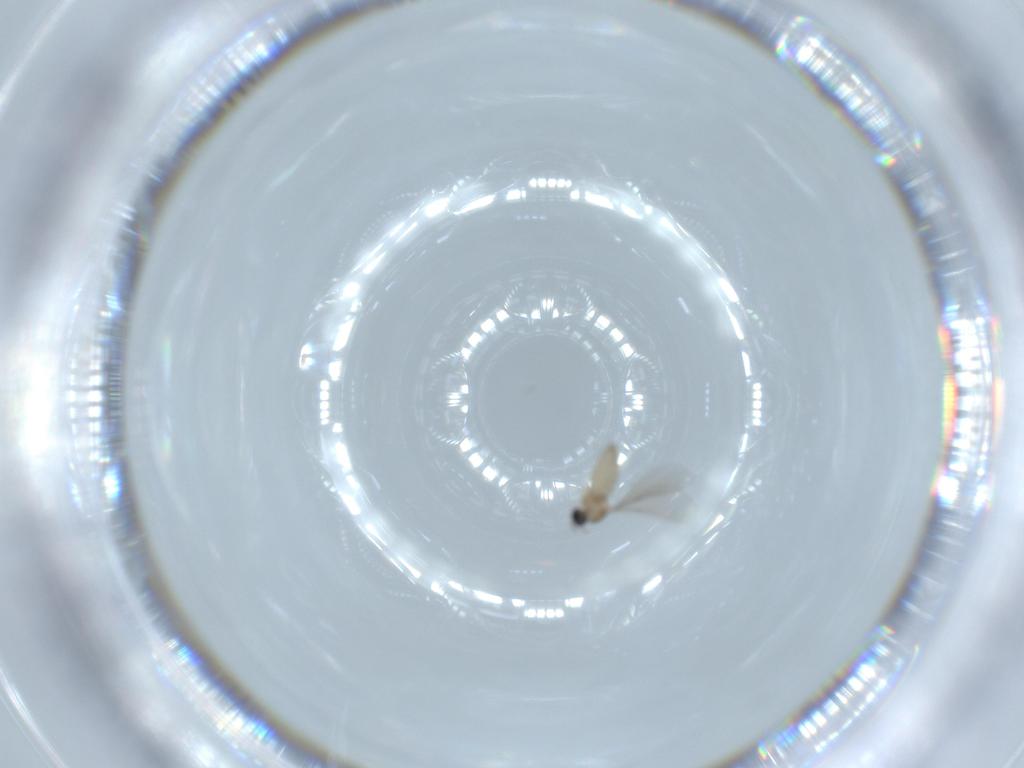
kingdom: Animalia
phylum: Arthropoda
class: Insecta
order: Diptera
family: Cecidomyiidae
